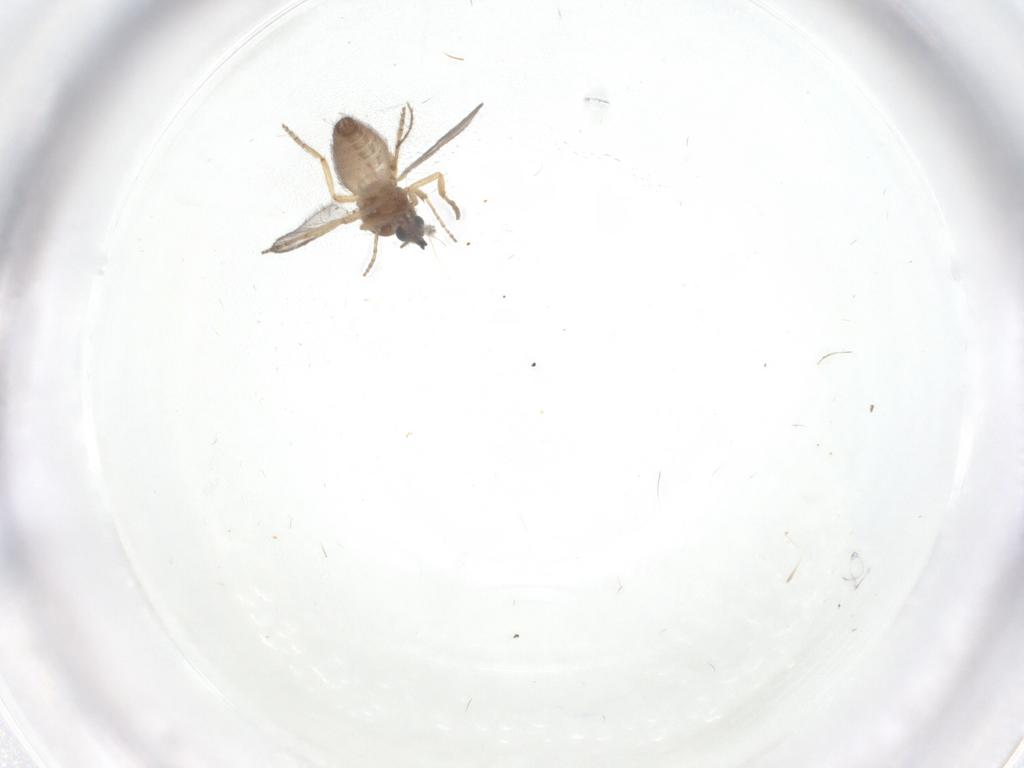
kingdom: Animalia
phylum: Arthropoda
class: Insecta
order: Diptera
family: Ceratopogonidae
